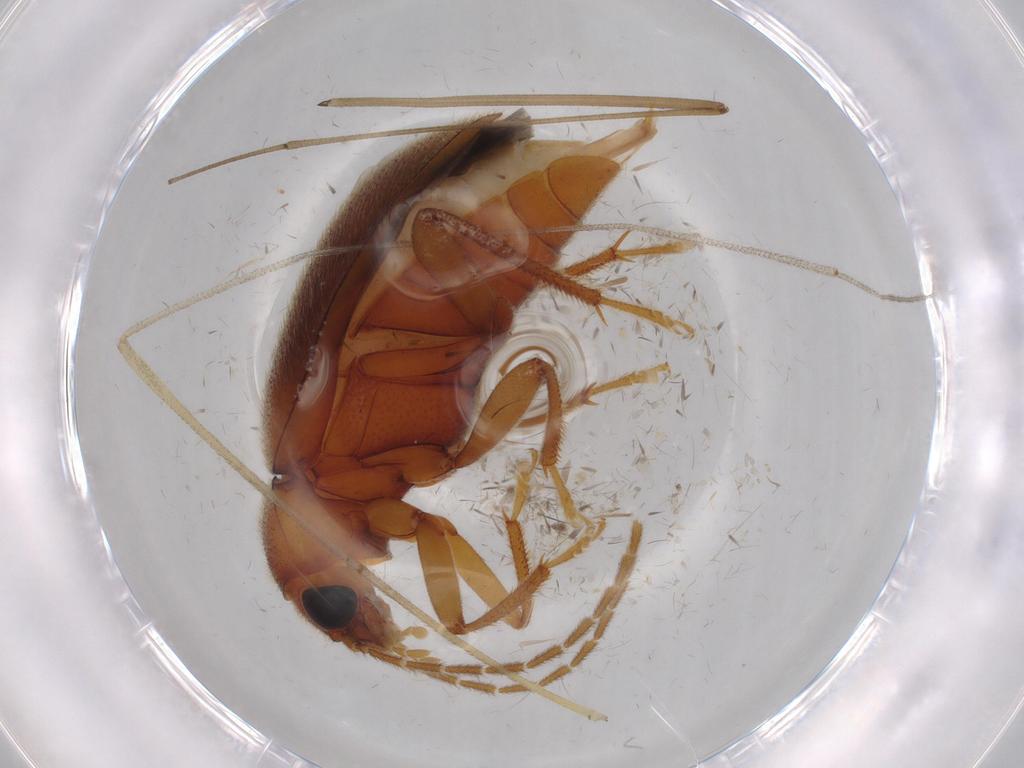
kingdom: Animalia
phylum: Arthropoda
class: Insecta
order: Coleoptera
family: Ptilodactylidae
